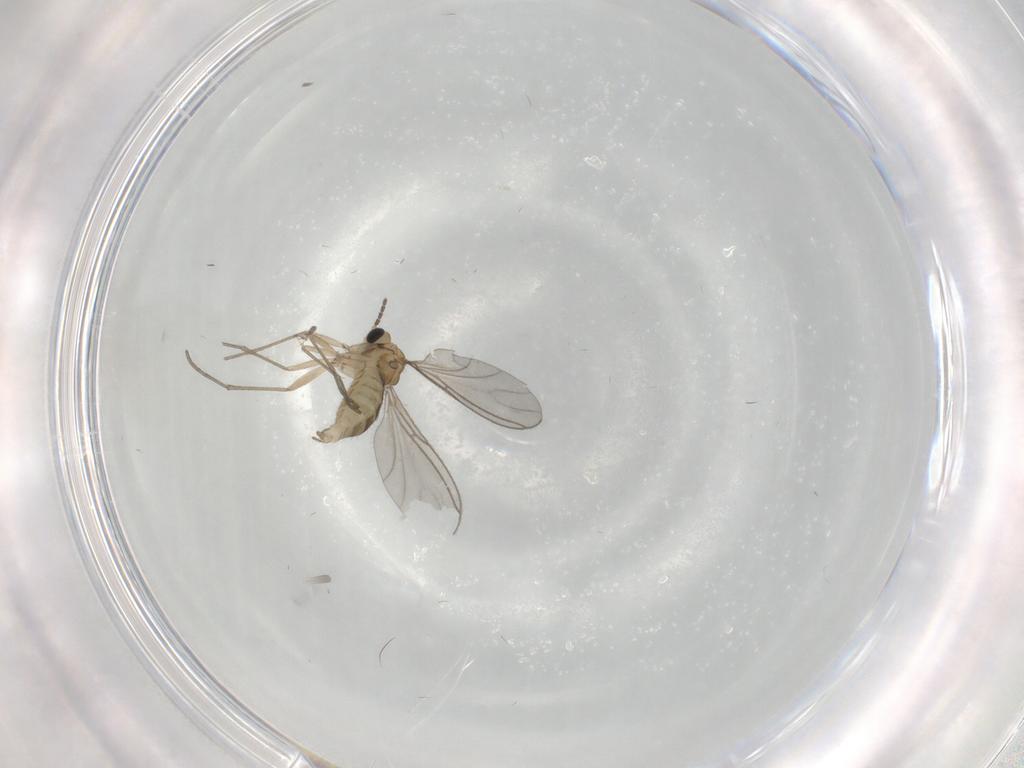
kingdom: Animalia
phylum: Arthropoda
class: Insecta
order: Diptera
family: Sciaridae
